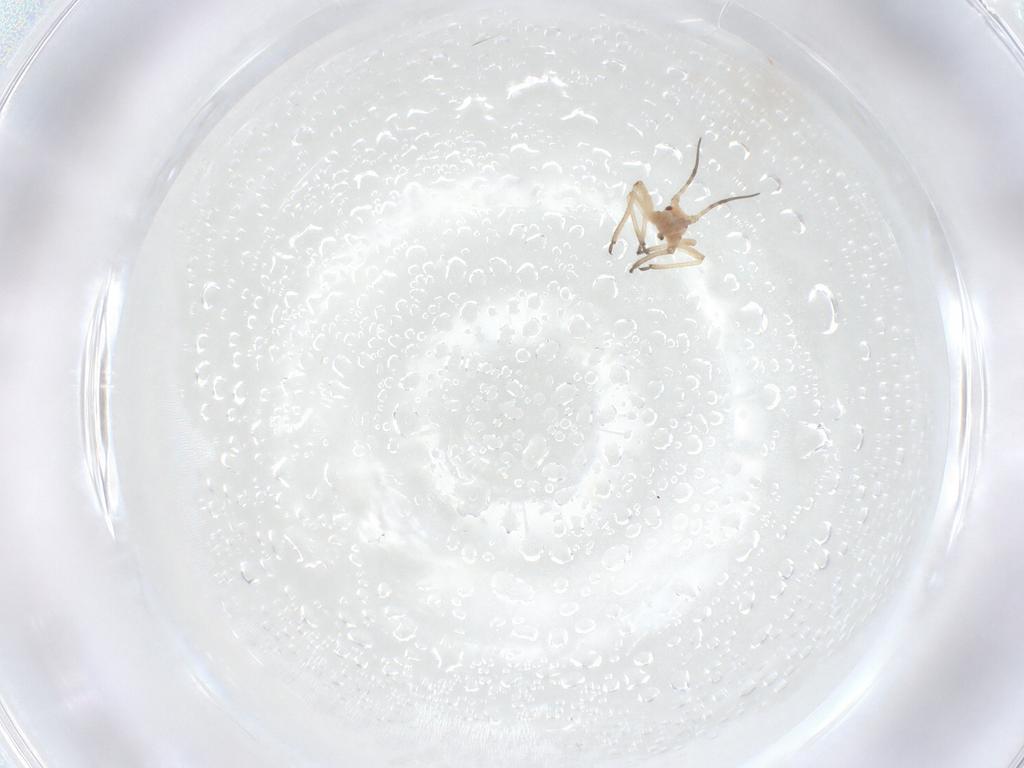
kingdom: Animalia
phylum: Arthropoda
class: Insecta
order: Hemiptera
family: Aphididae
